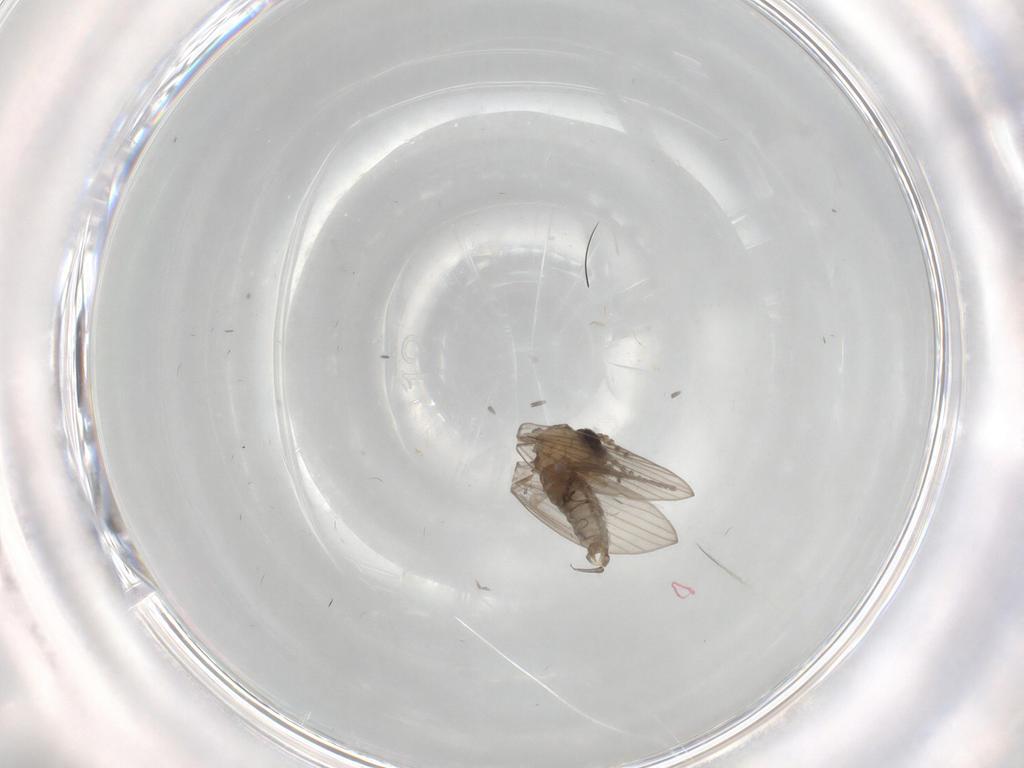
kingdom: Animalia
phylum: Arthropoda
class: Insecta
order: Diptera
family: Psychodidae
